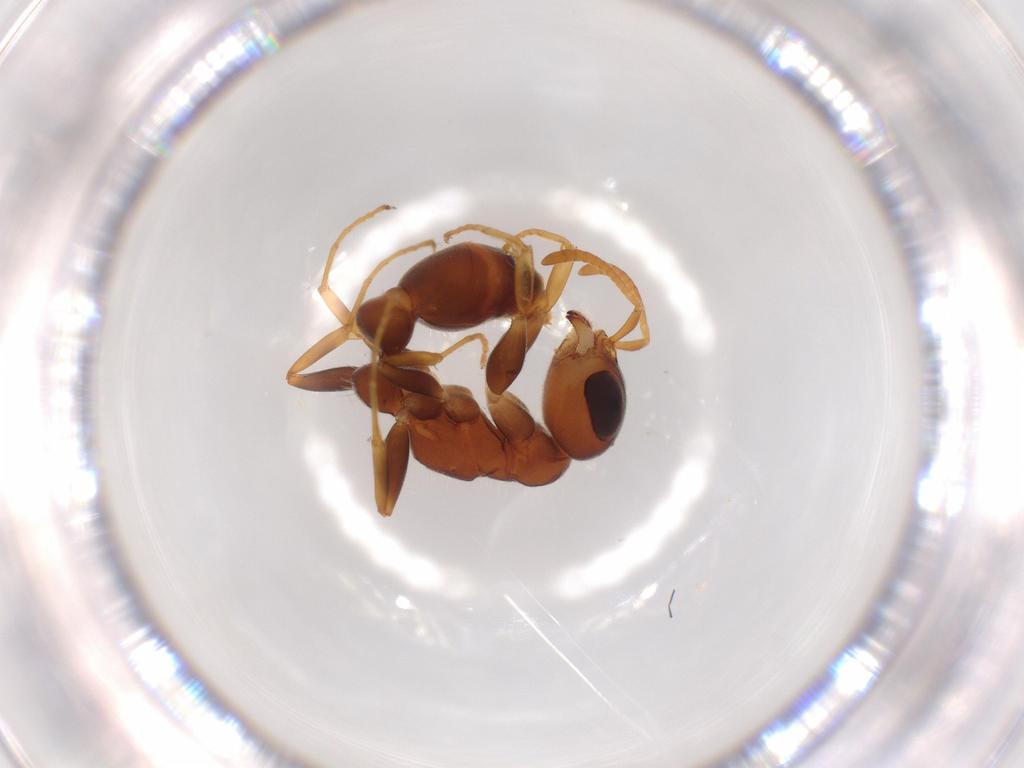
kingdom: Animalia
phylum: Arthropoda
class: Insecta
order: Hymenoptera
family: Formicidae
